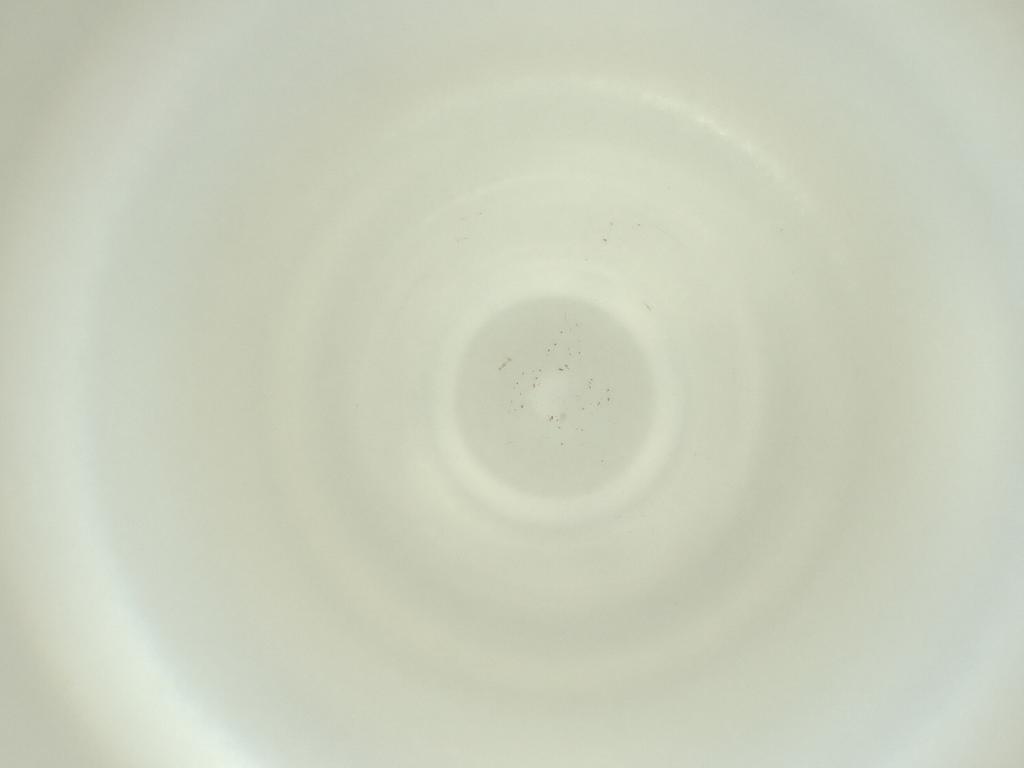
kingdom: Animalia
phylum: Arthropoda
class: Insecta
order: Diptera
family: Cecidomyiidae
